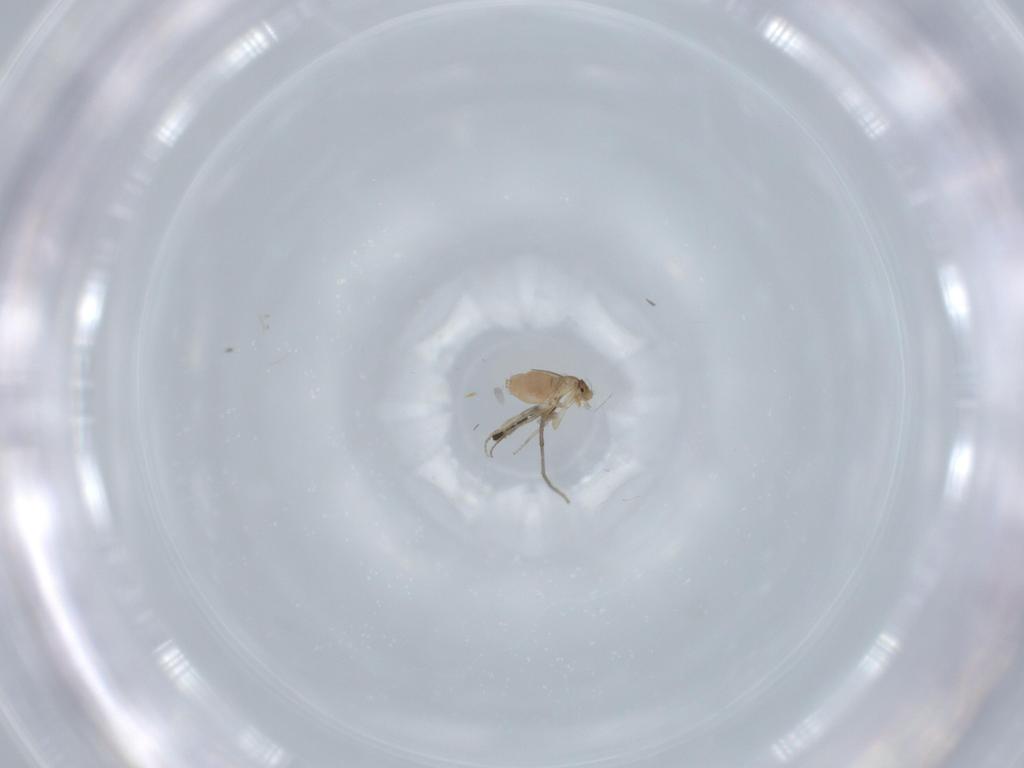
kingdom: Animalia
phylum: Arthropoda
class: Insecta
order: Diptera
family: Sciaridae
